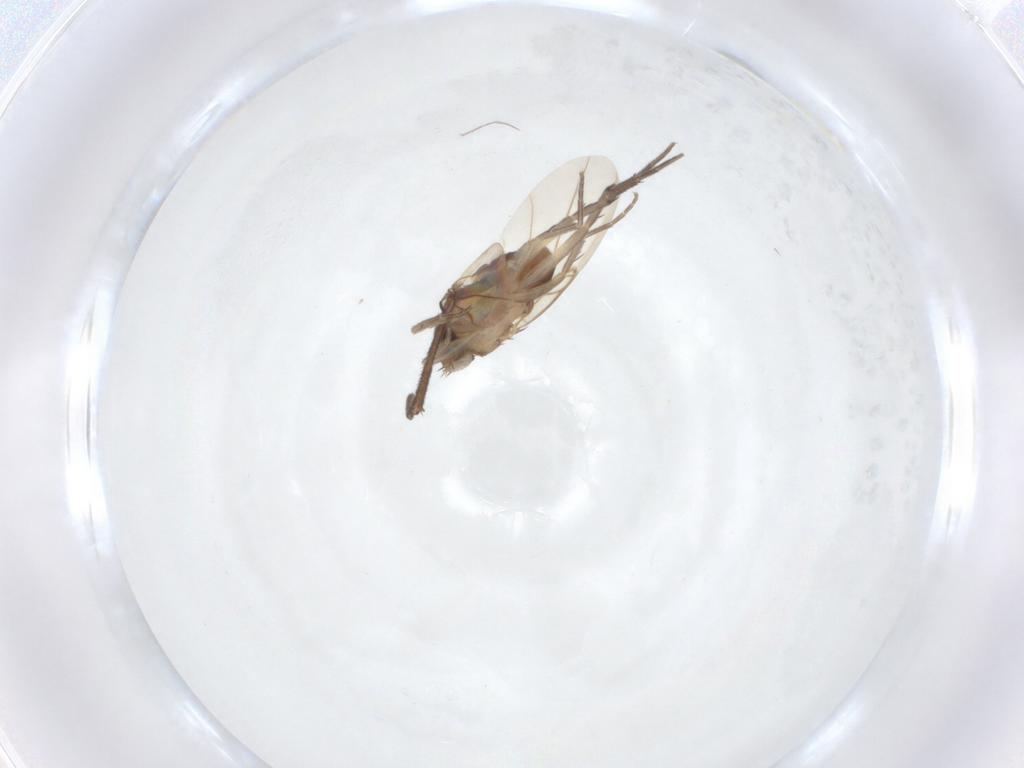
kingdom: Animalia
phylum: Arthropoda
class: Insecta
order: Diptera
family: Sciaridae
